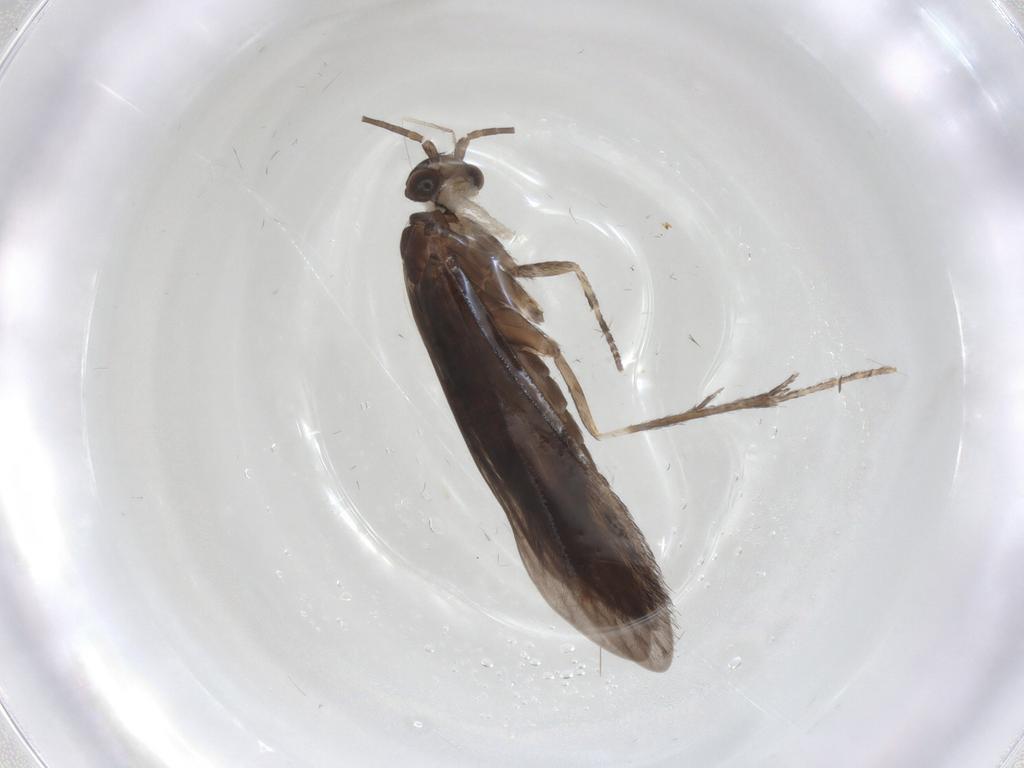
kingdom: Animalia
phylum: Arthropoda
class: Insecta
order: Trichoptera
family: Xiphocentronidae
